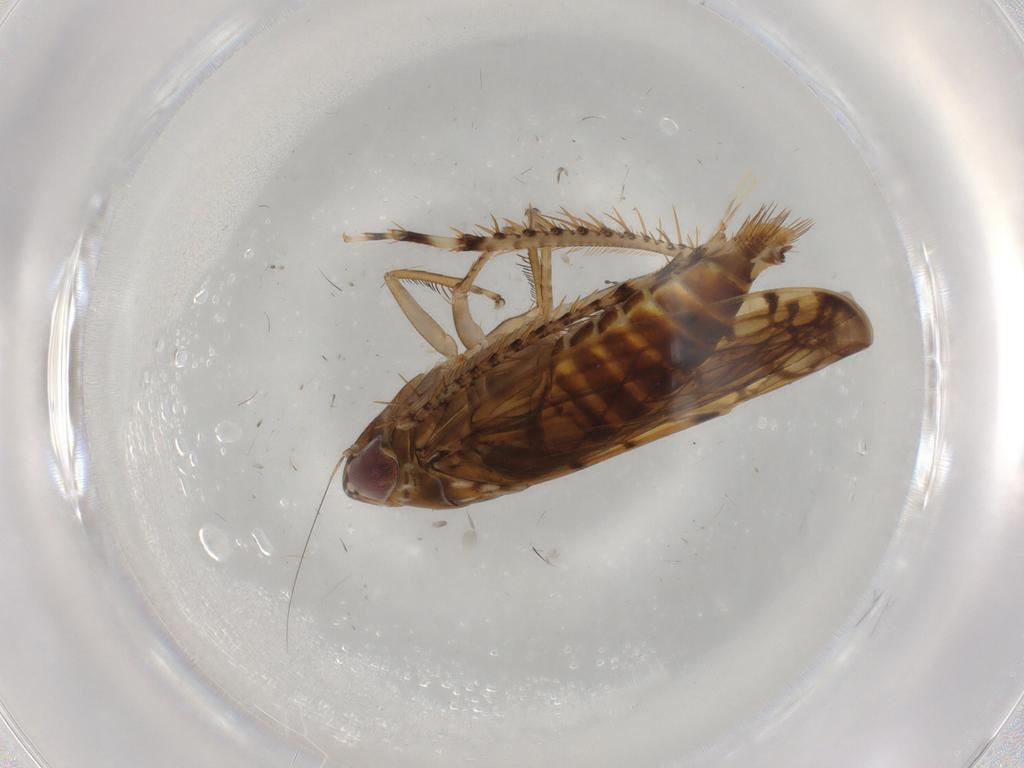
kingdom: Animalia
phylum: Arthropoda
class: Insecta
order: Hemiptera
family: Cicadellidae
